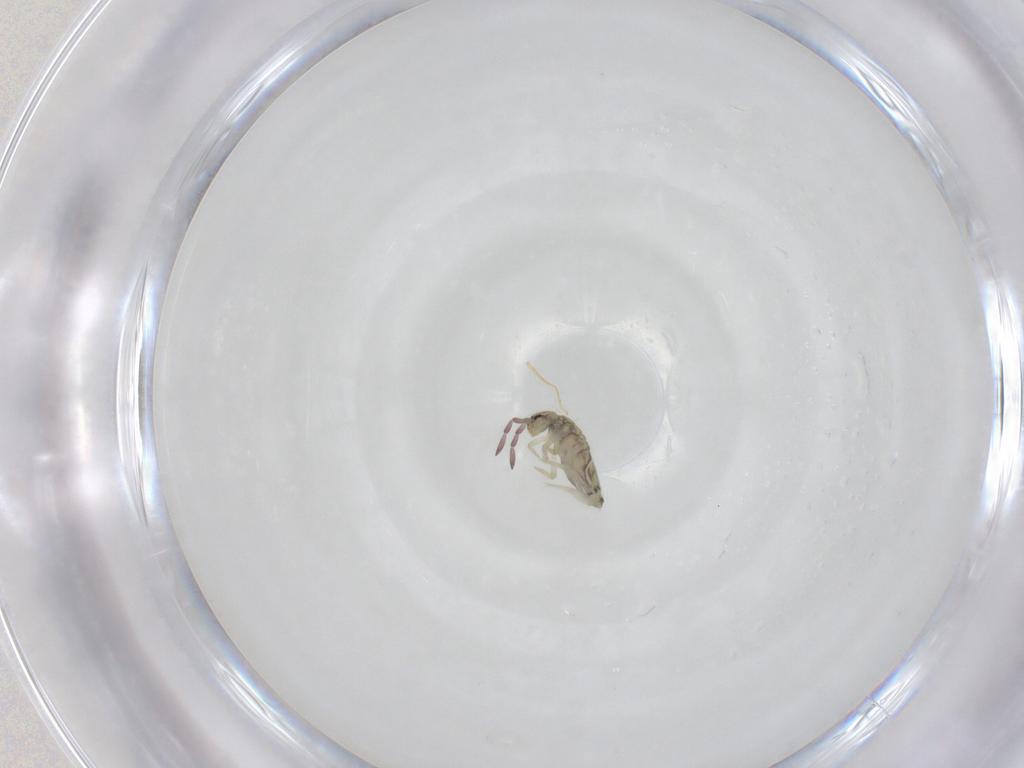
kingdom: Animalia
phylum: Arthropoda
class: Collembola
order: Entomobryomorpha
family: Entomobryidae
